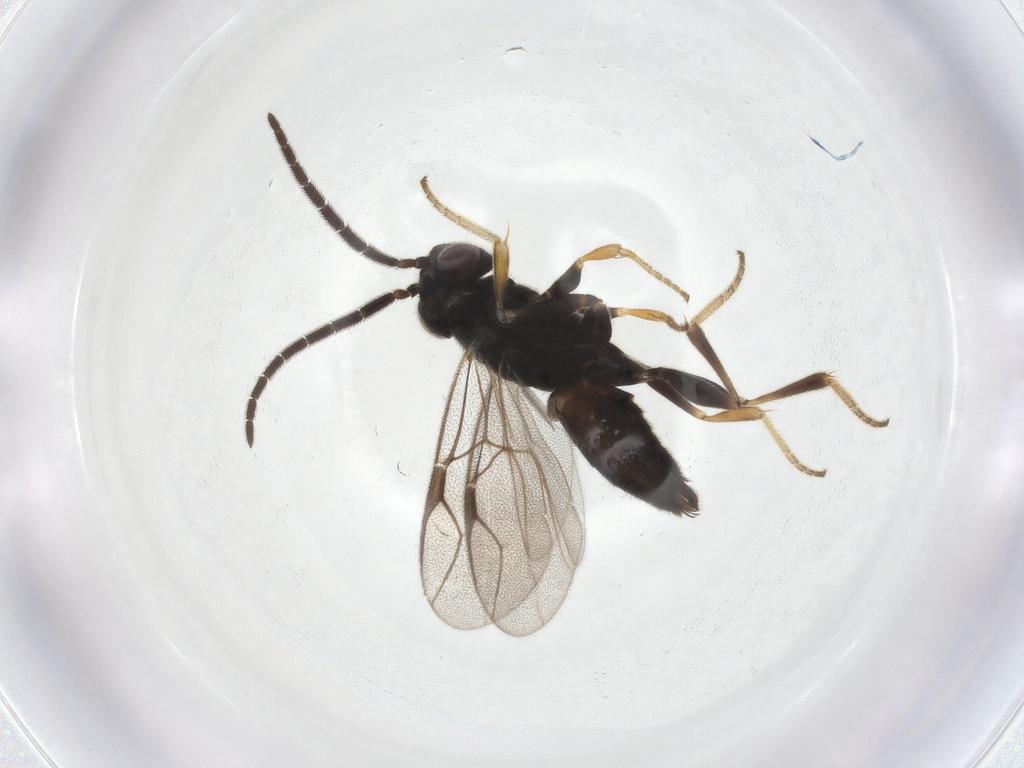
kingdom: Animalia
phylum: Arthropoda
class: Insecta
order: Hymenoptera
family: Dryinidae
